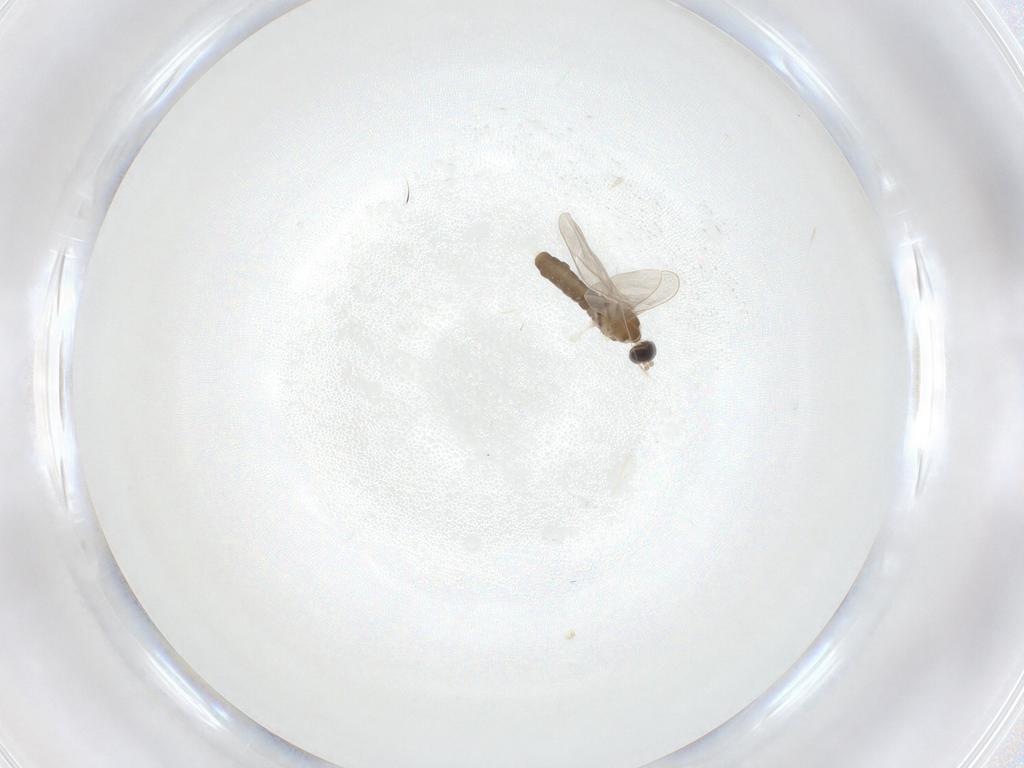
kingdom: Animalia
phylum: Arthropoda
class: Insecta
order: Diptera
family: Cecidomyiidae
